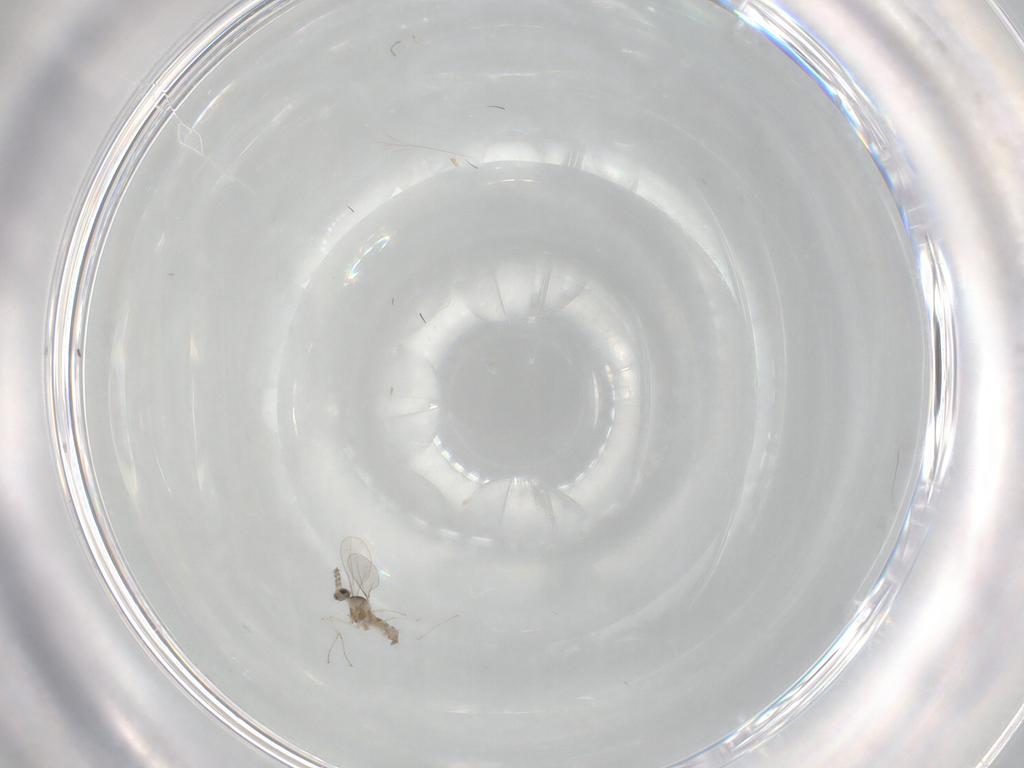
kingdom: Animalia
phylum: Arthropoda
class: Insecta
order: Diptera
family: Cecidomyiidae
